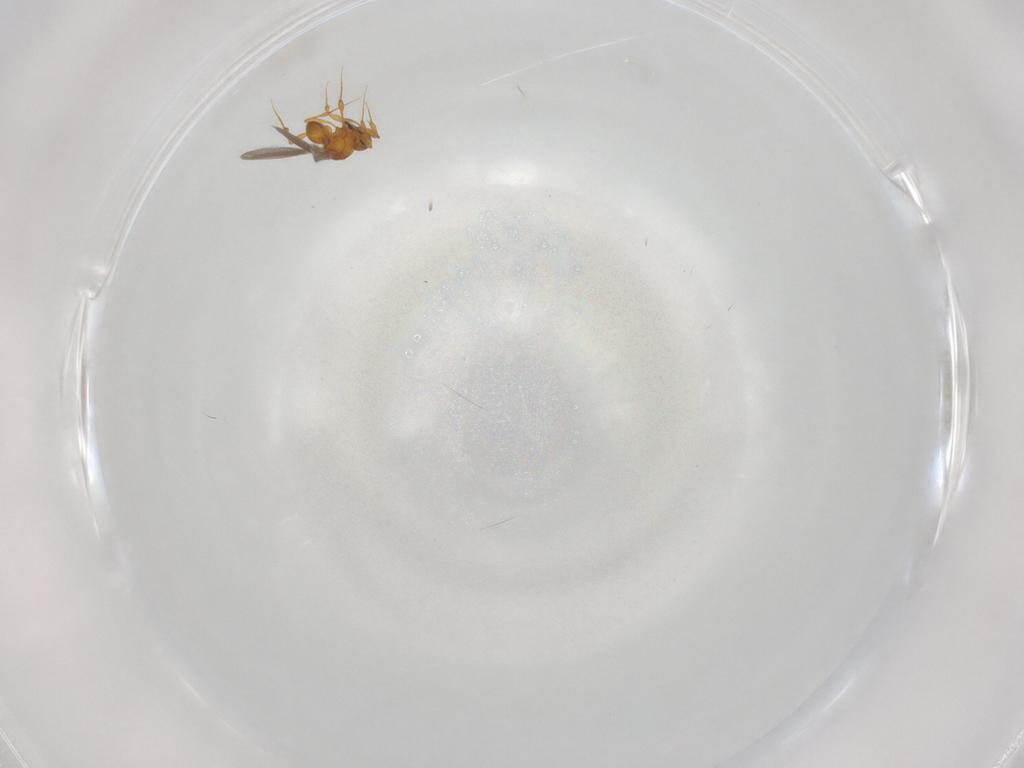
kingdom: Animalia
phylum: Arthropoda
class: Insecta
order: Hymenoptera
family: Platygastridae
